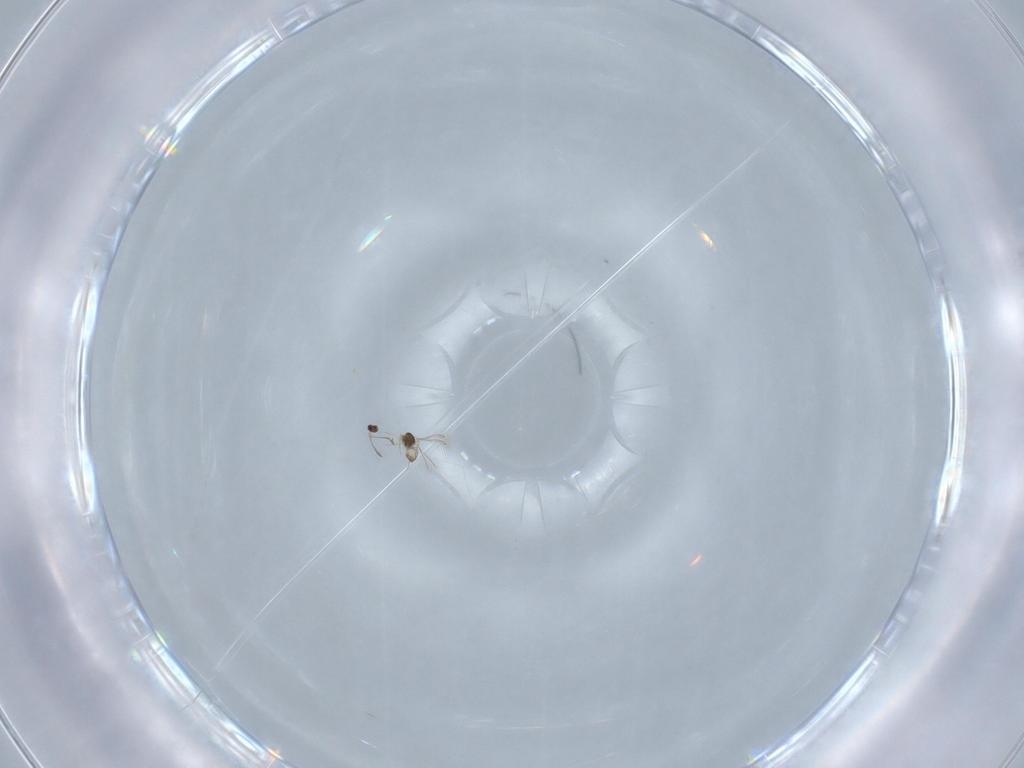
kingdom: Animalia
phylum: Arthropoda
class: Insecta
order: Hymenoptera
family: Mymaridae
